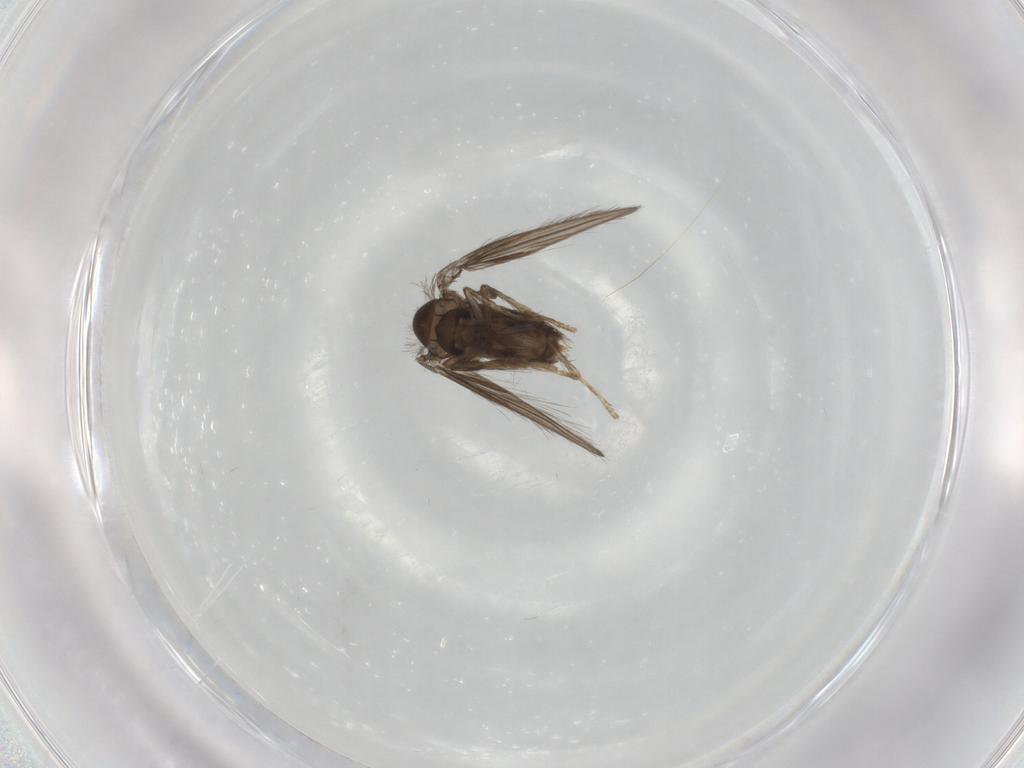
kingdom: Animalia
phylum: Arthropoda
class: Insecta
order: Diptera
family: Psychodidae
